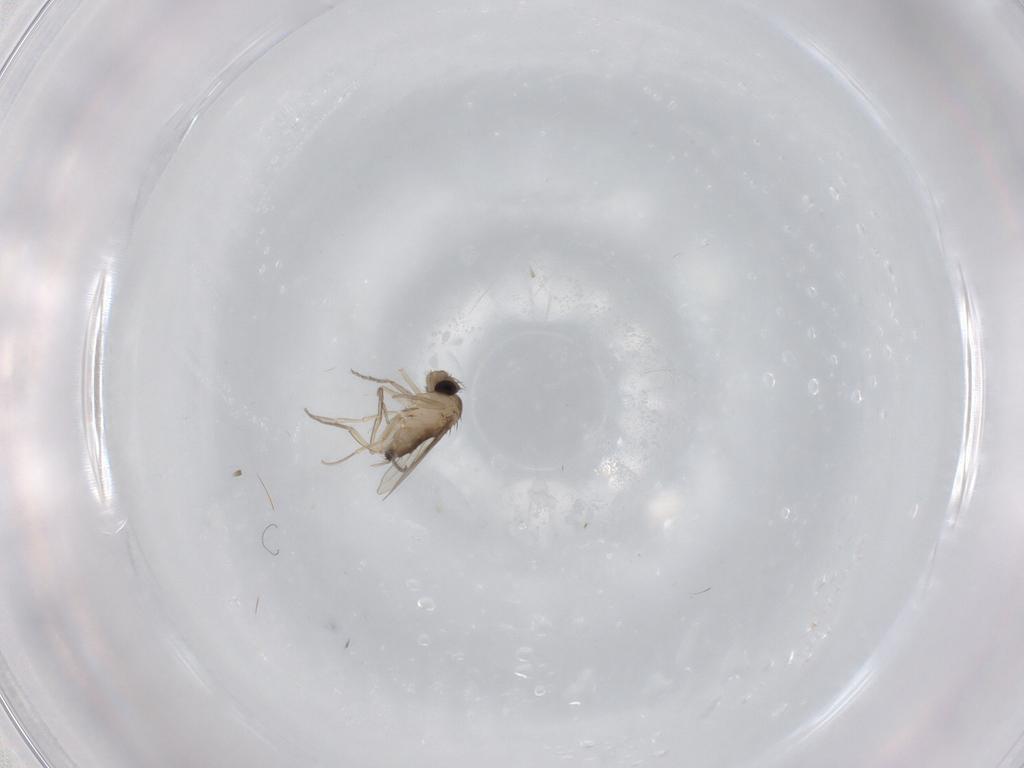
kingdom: Animalia
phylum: Arthropoda
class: Insecta
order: Diptera
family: Phoridae
